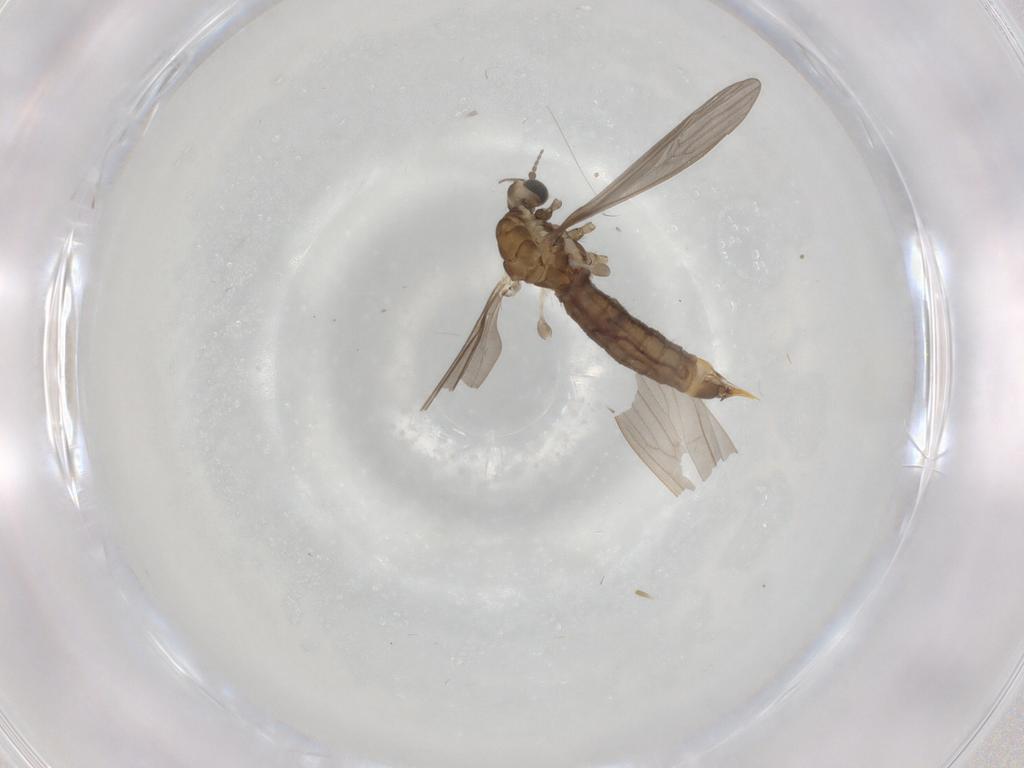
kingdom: Animalia
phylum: Arthropoda
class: Insecta
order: Diptera
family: Limoniidae
